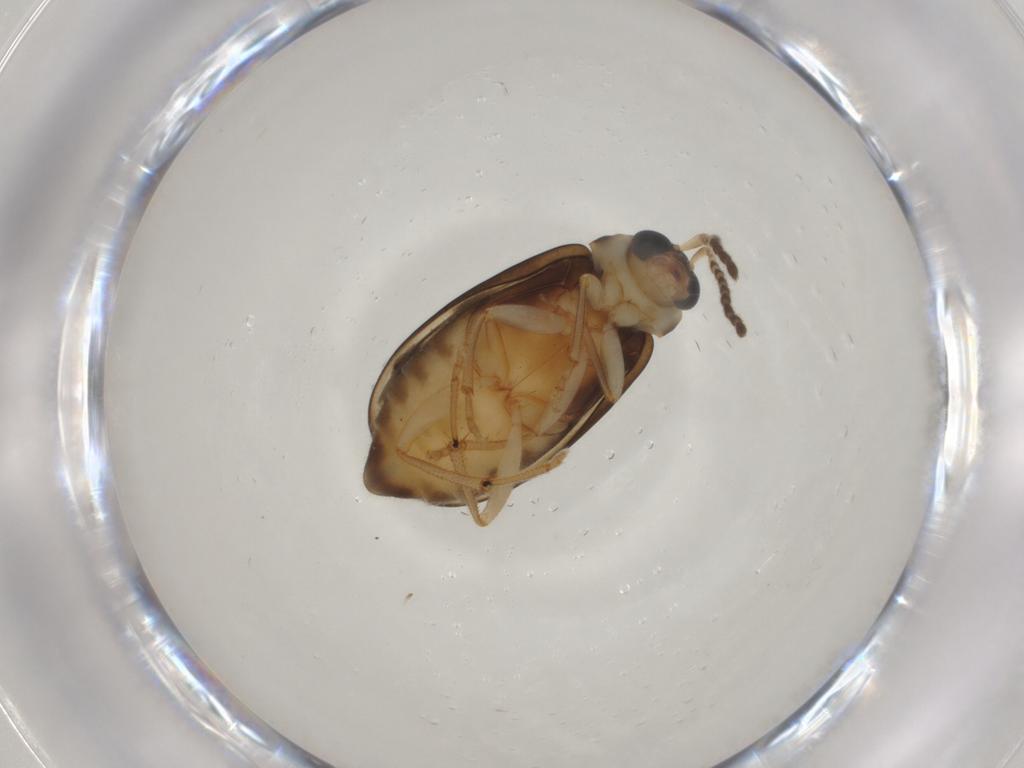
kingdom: Animalia
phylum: Arthropoda
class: Insecta
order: Coleoptera
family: Chrysomelidae
